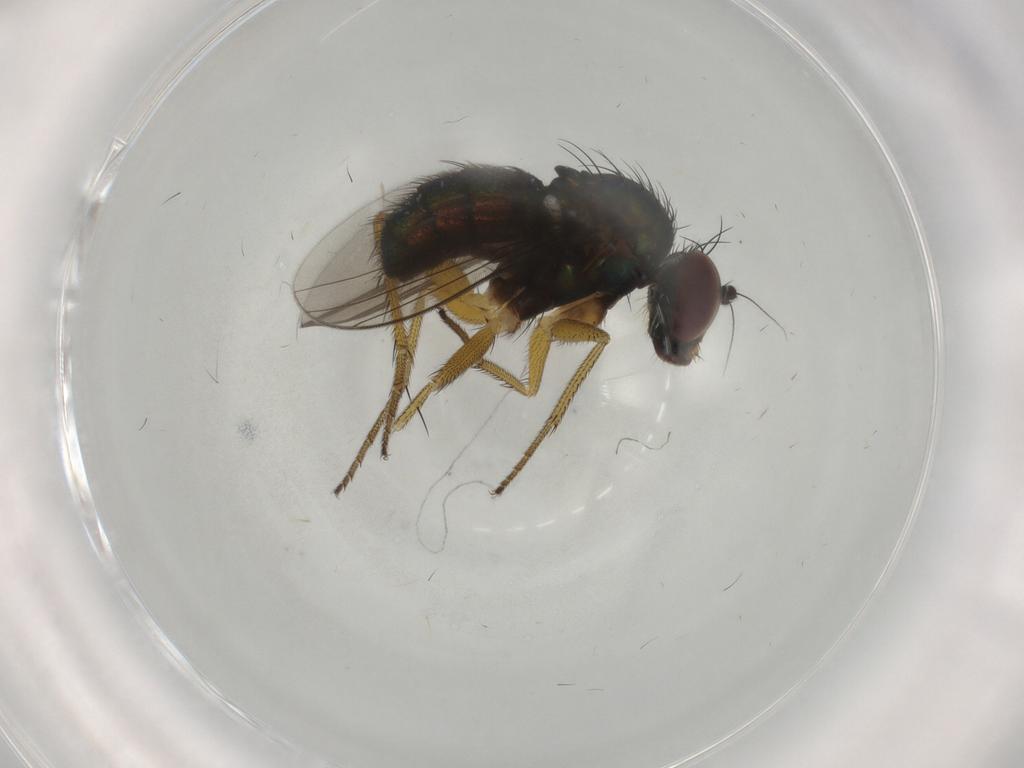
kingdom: Animalia
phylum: Arthropoda
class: Insecta
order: Diptera
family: Dolichopodidae
